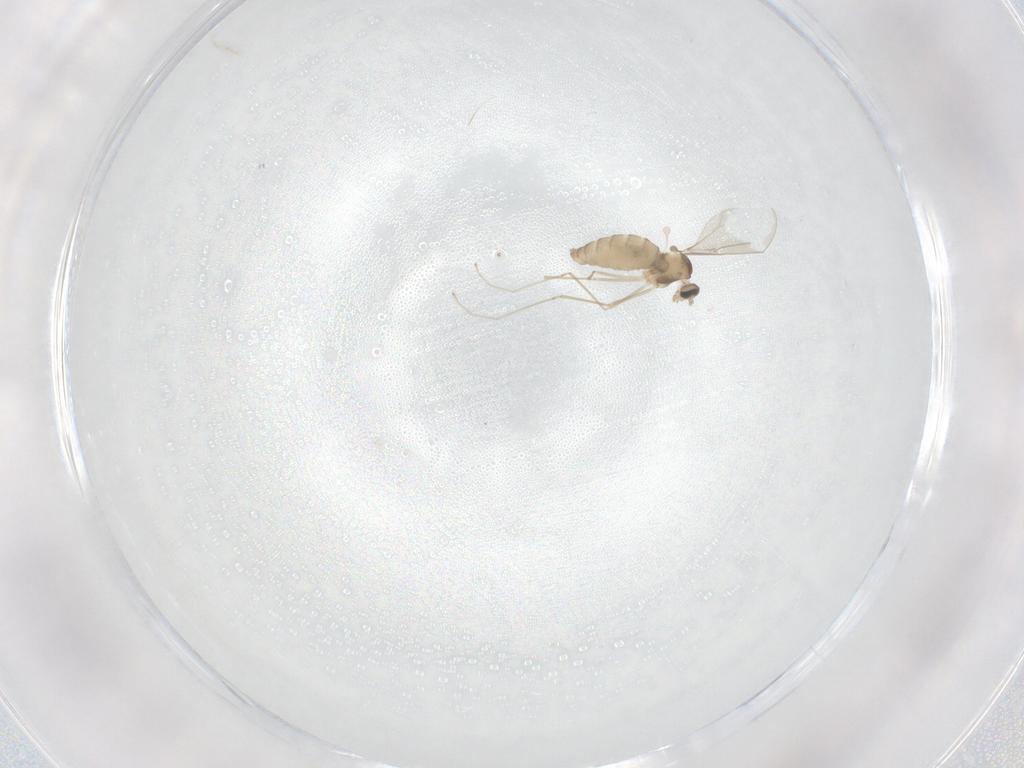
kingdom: Animalia
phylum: Arthropoda
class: Insecta
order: Diptera
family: Cecidomyiidae
